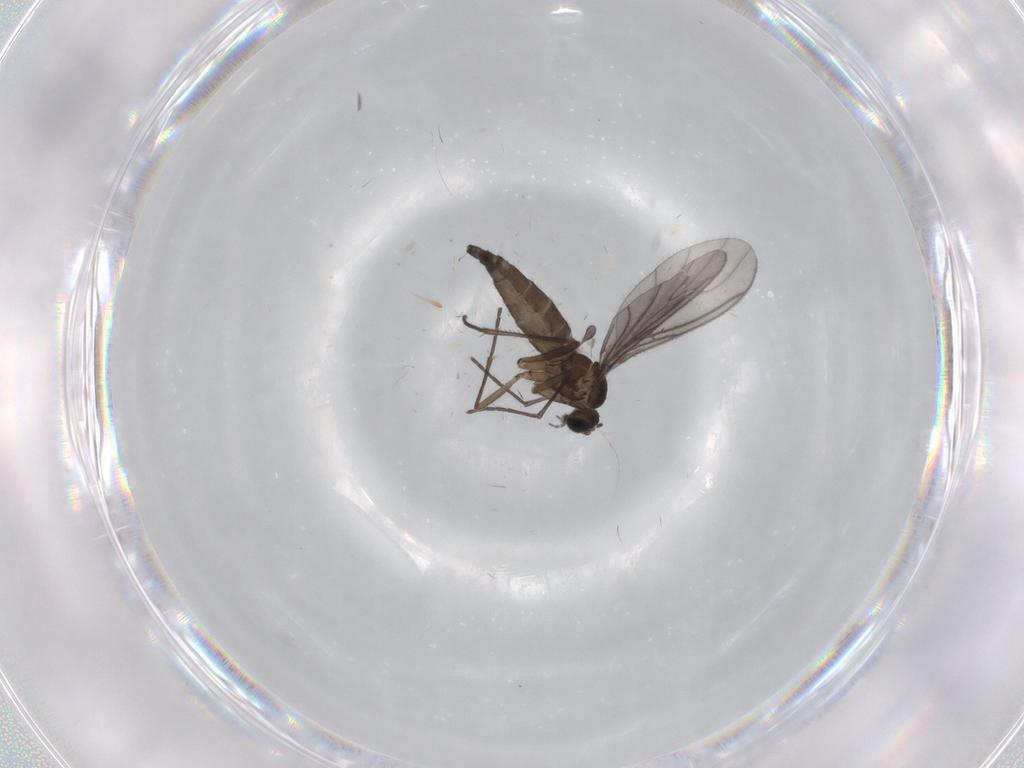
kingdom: Animalia
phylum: Arthropoda
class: Insecta
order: Diptera
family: Sciaridae
